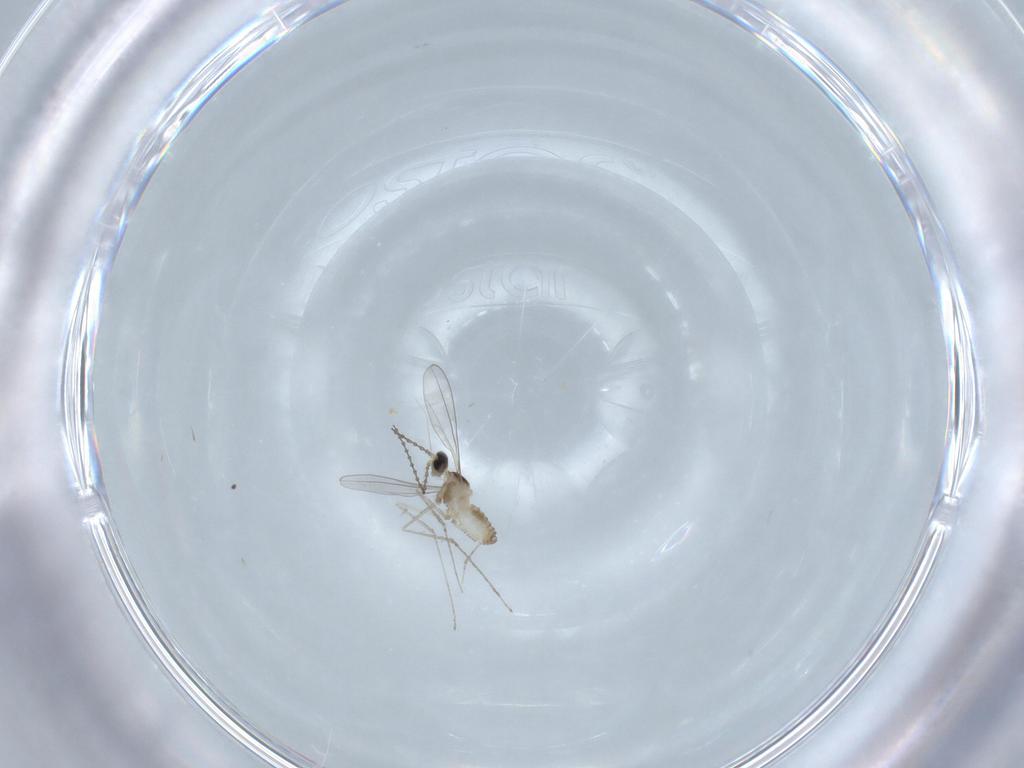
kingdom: Animalia
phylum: Arthropoda
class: Insecta
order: Diptera
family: Cecidomyiidae
